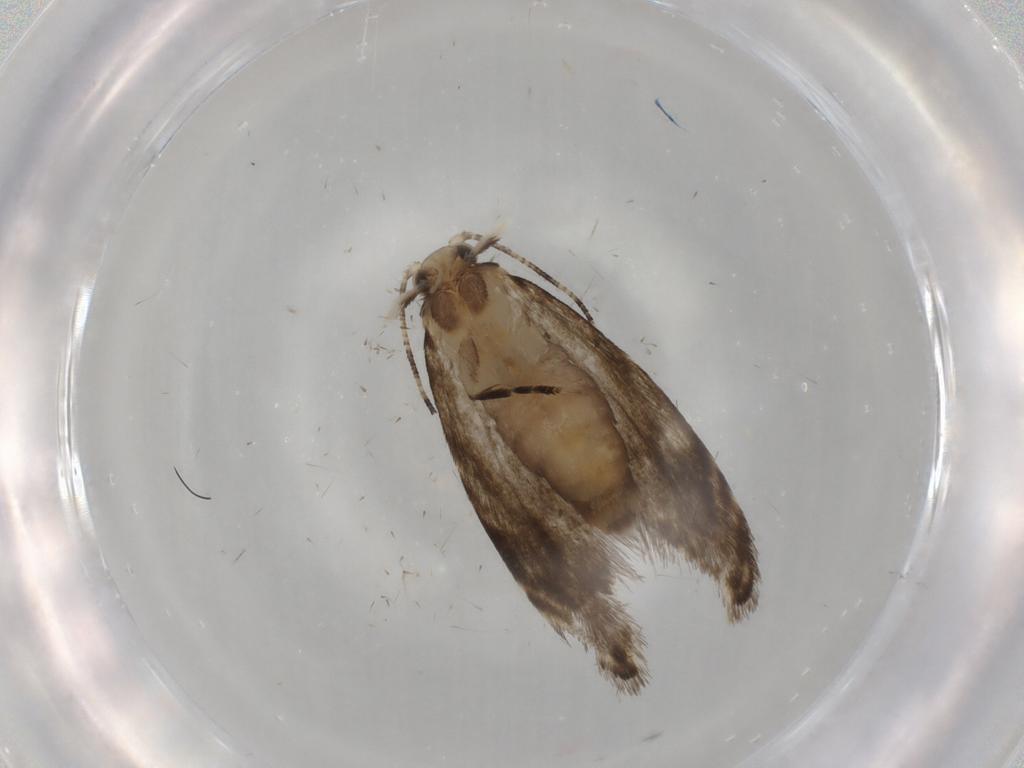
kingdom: Animalia
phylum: Arthropoda
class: Insecta
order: Lepidoptera
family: Tineidae
